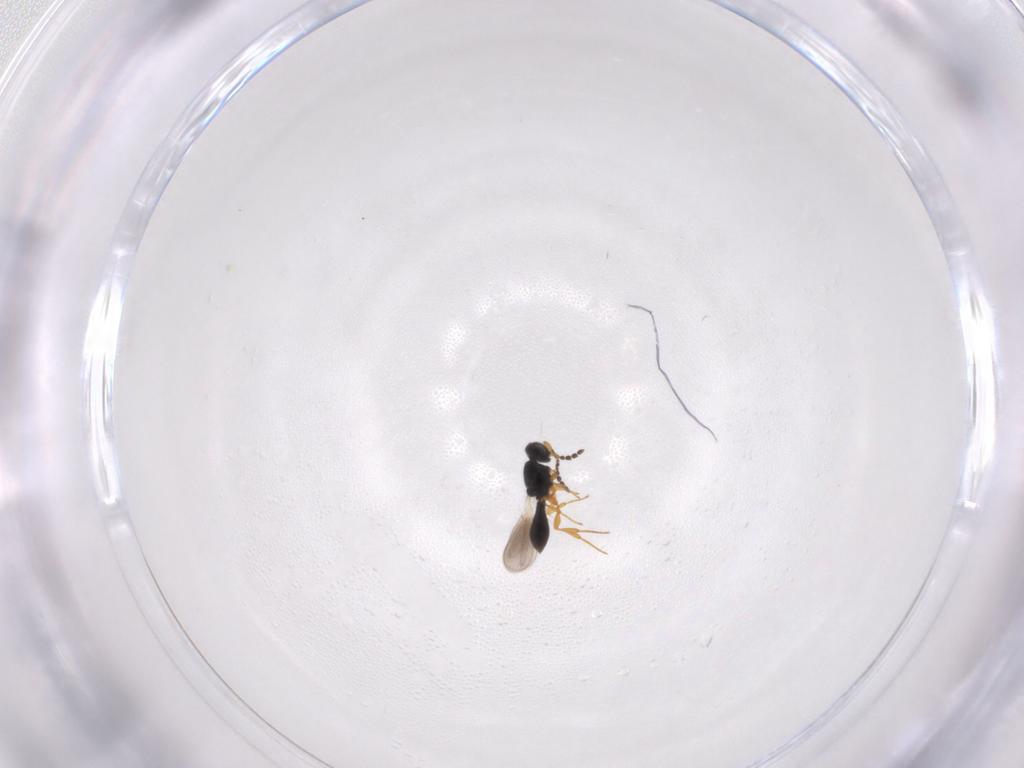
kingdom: Animalia
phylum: Arthropoda
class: Insecta
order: Hymenoptera
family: Platygastridae
